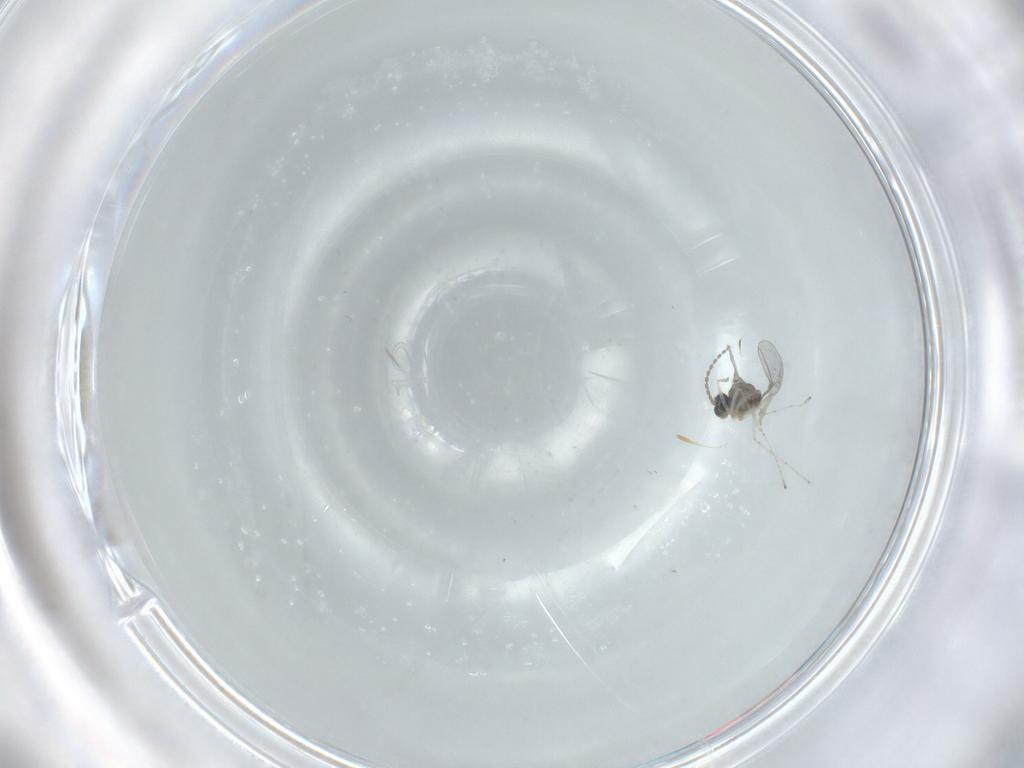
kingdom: Animalia
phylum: Arthropoda
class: Insecta
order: Diptera
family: Cecidomyiidae
